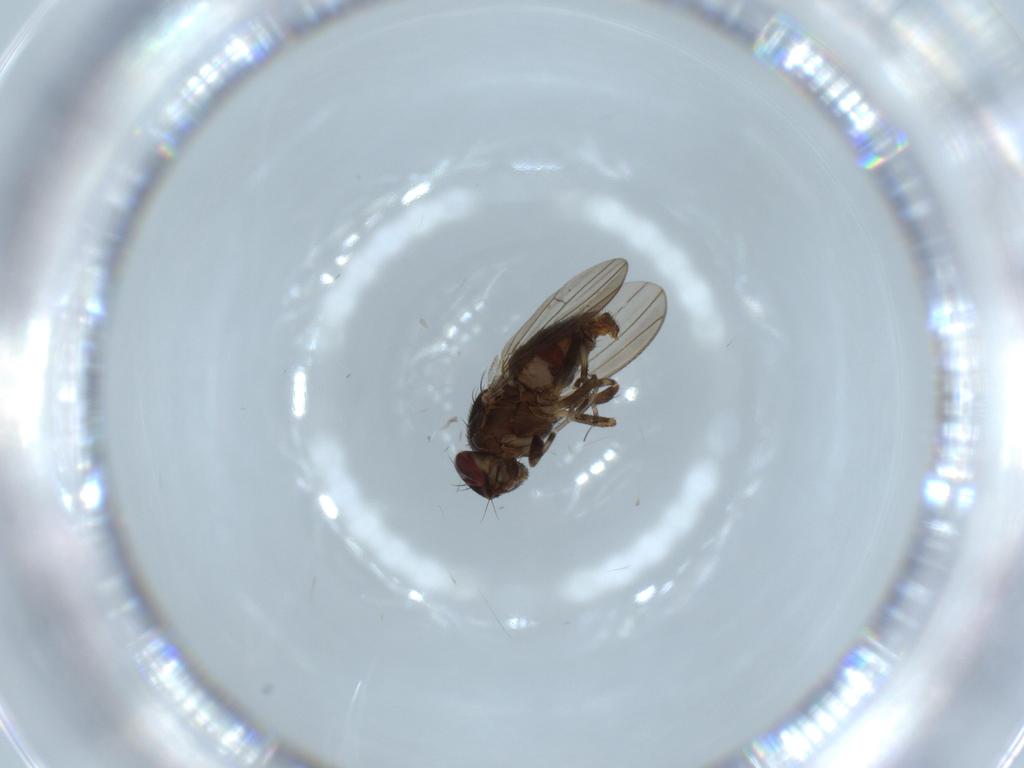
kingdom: Animalia
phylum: Arthropoda
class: Insecta
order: Diptera
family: Heleomyzidae
